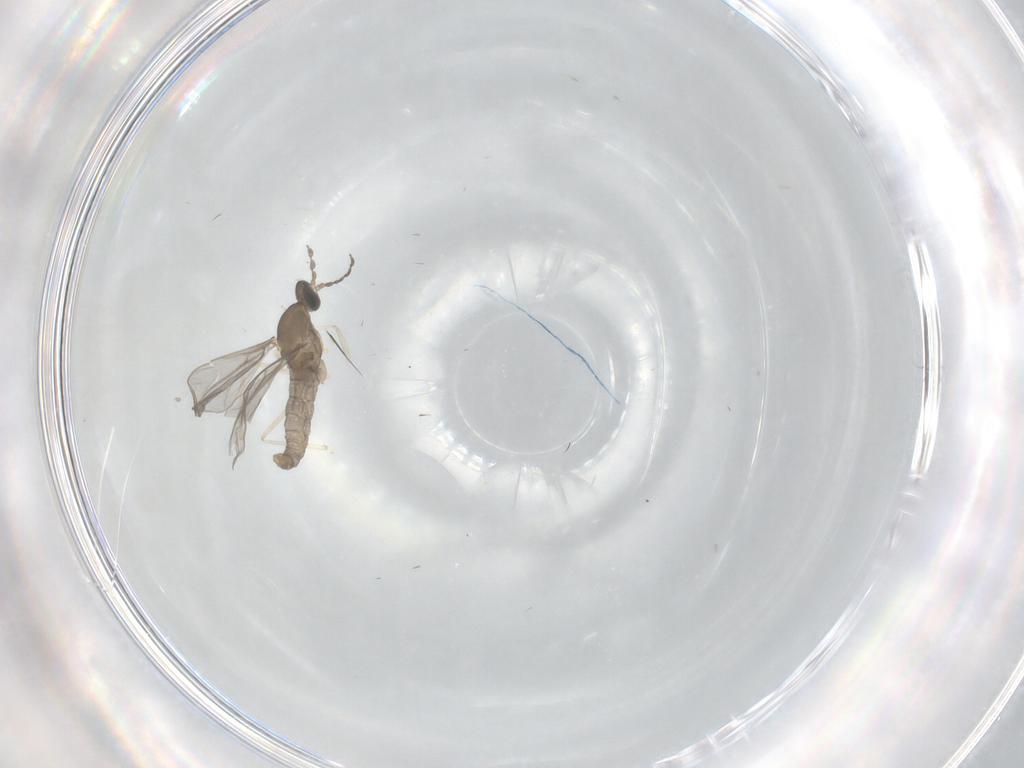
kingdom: Animalia
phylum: Arthropoda
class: Insecta
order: Diptera
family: Cecidomyiidae
